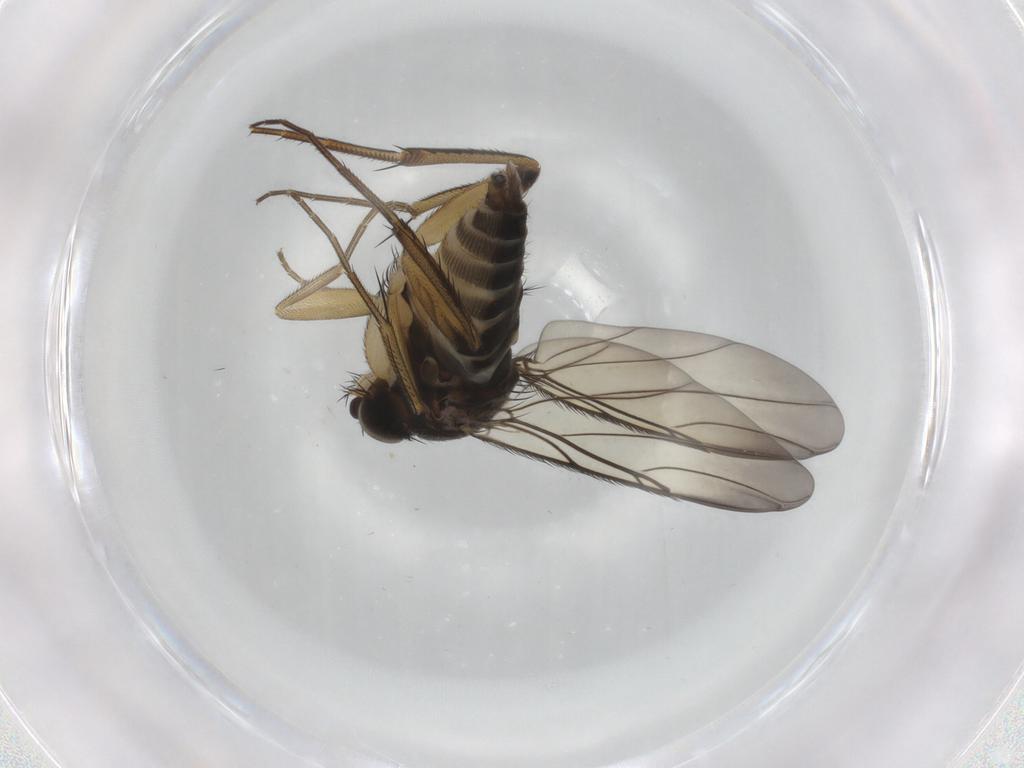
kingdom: Animalia
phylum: Arthropoda
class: Insecta
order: Diptera
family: Phoridae
